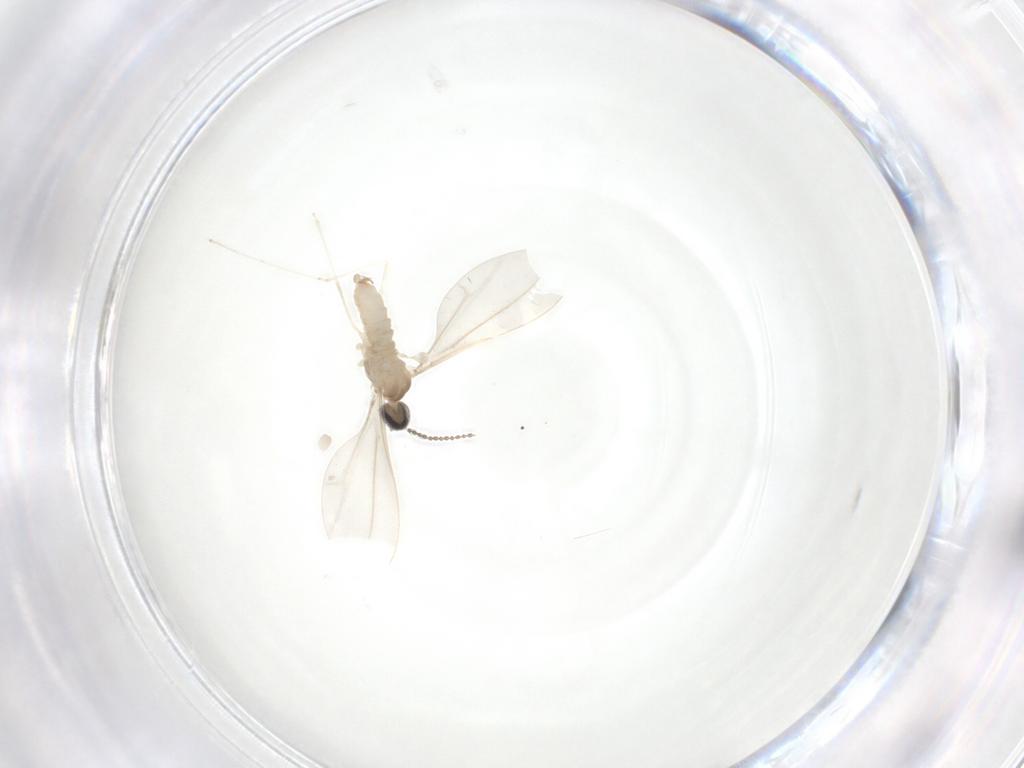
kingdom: Animalia
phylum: Arthropoda
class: Insecta
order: Diptera
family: Cecidomyiidae
